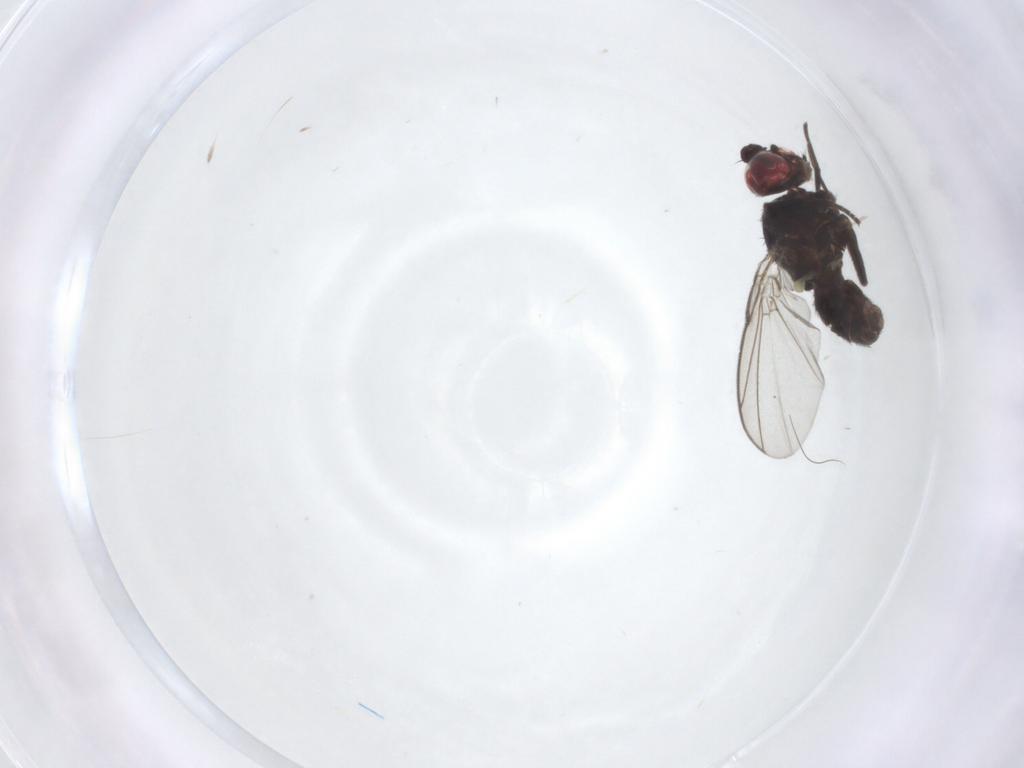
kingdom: Animalia
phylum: Arthropoda
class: Insecta
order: Diptera
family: Agromyzidae
